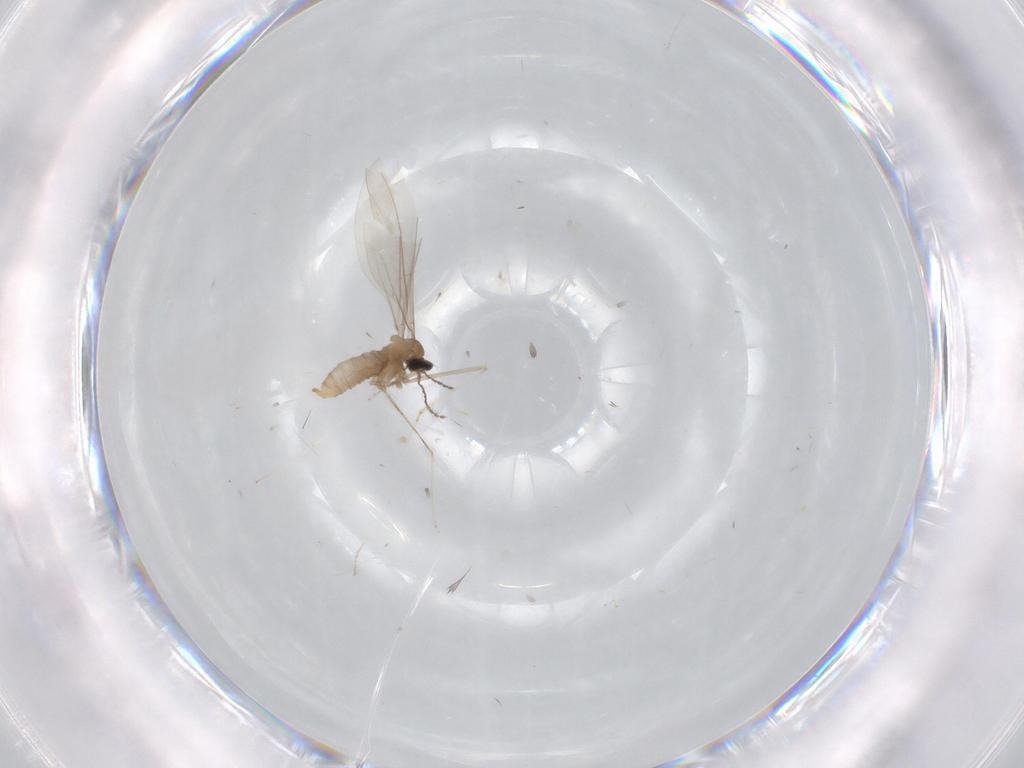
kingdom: Animalia
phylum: Arthropoda
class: Insecta
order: Diptera
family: Cecidomyiidae
